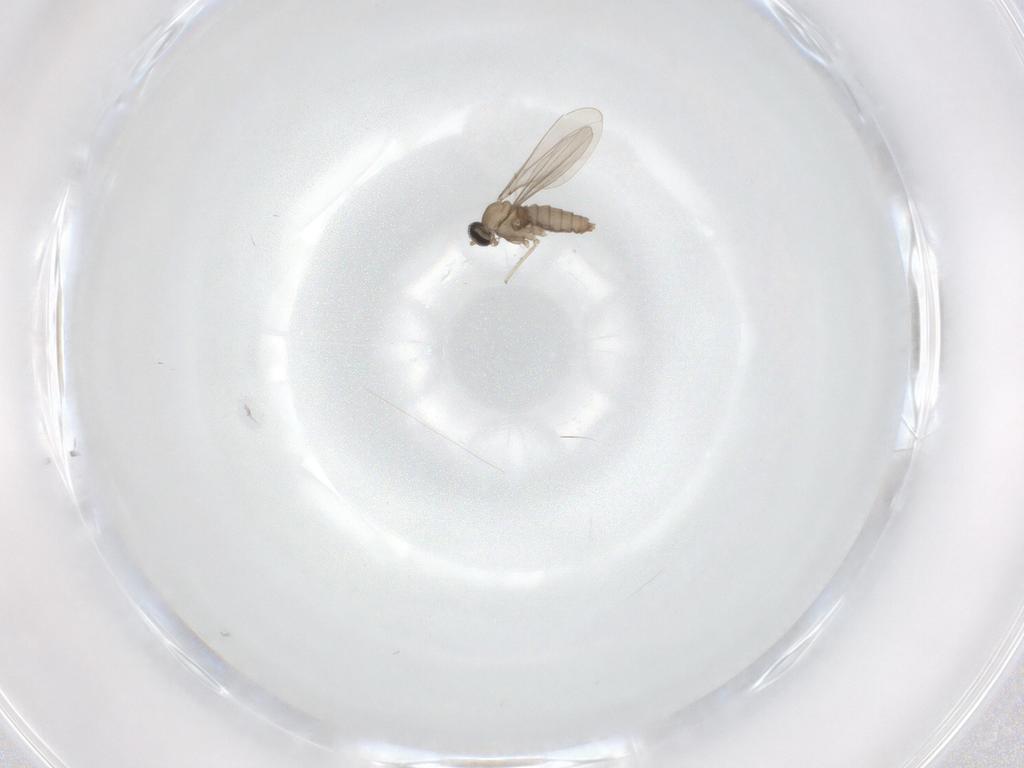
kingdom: Animalia
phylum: Arthropoda
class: Insecta
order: Diptera
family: Cecidomyiidae
